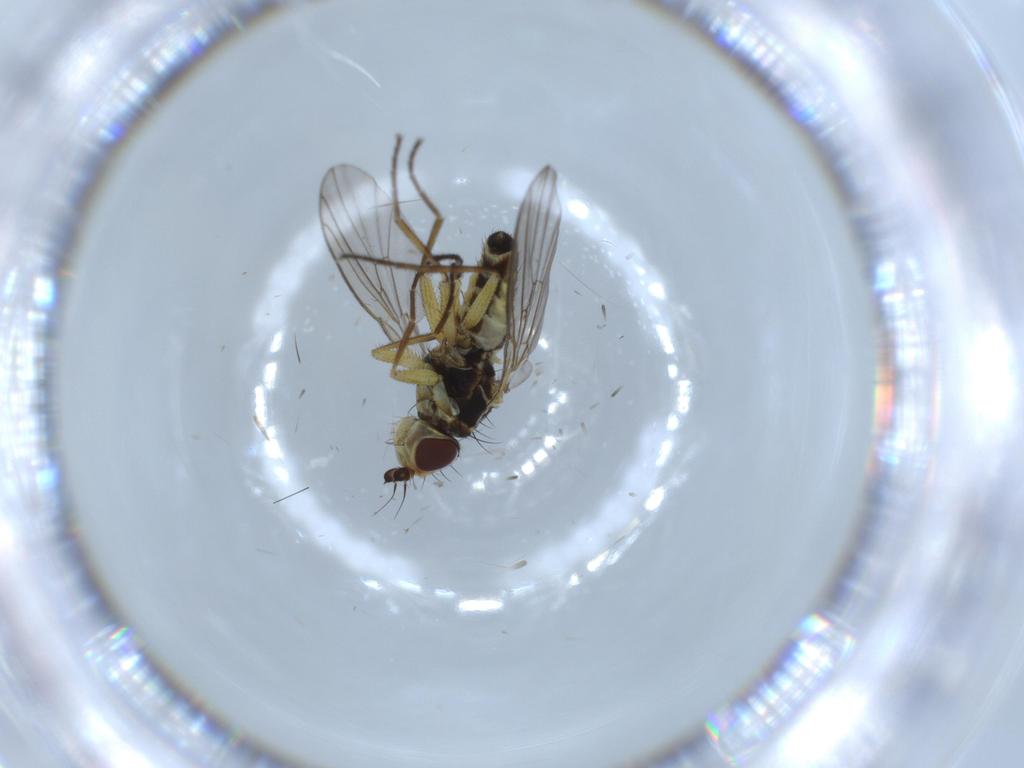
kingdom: Animalia
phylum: Arthropoda
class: Insecta
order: Diptera
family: Agromyzidae
